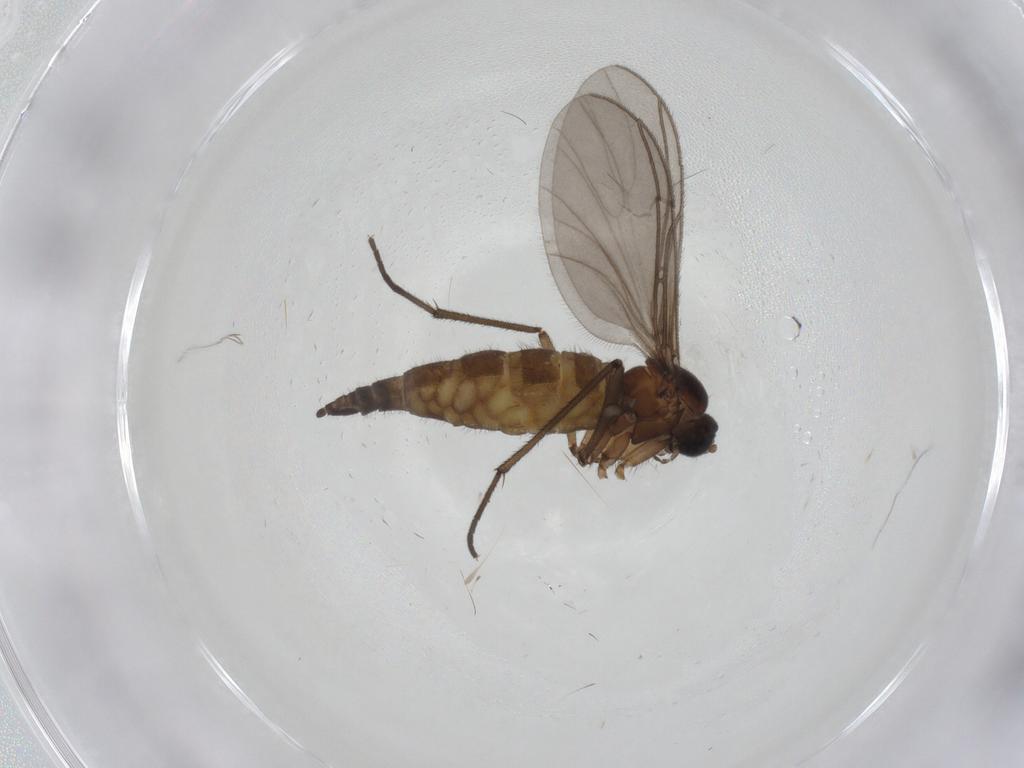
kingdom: Animalia
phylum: Arthropoda
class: Insecta
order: Diptera
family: Sciaridae
